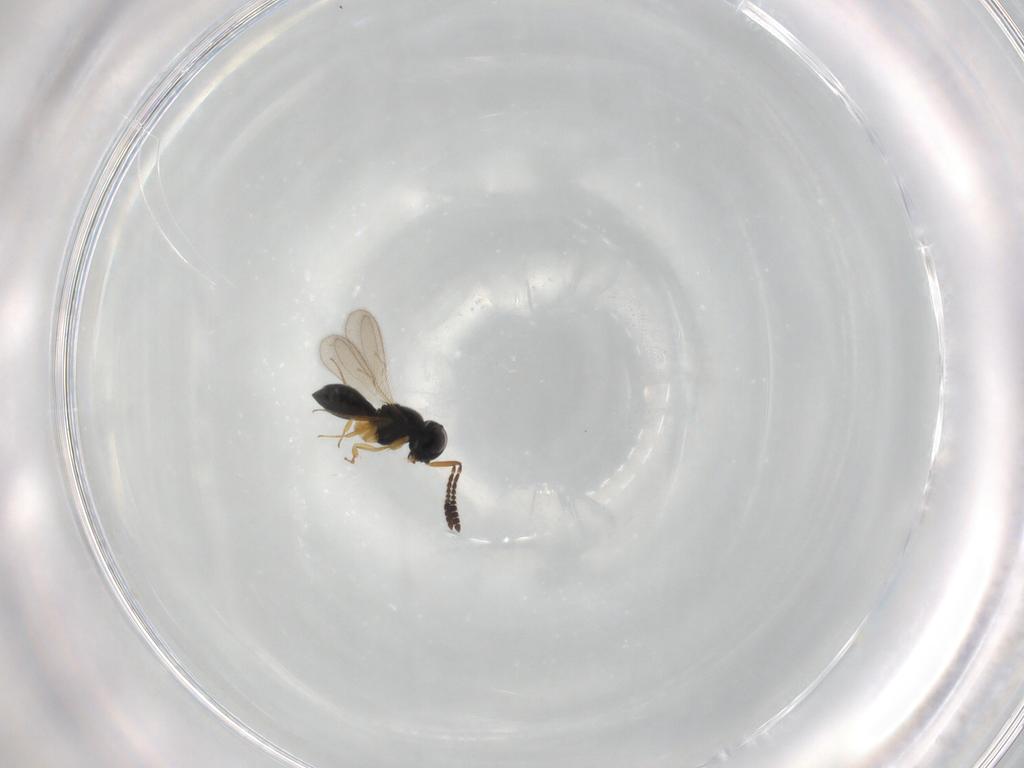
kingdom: Animalia
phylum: Arthropoda
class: Insecta
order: Hymenoptera
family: Scelionidae
